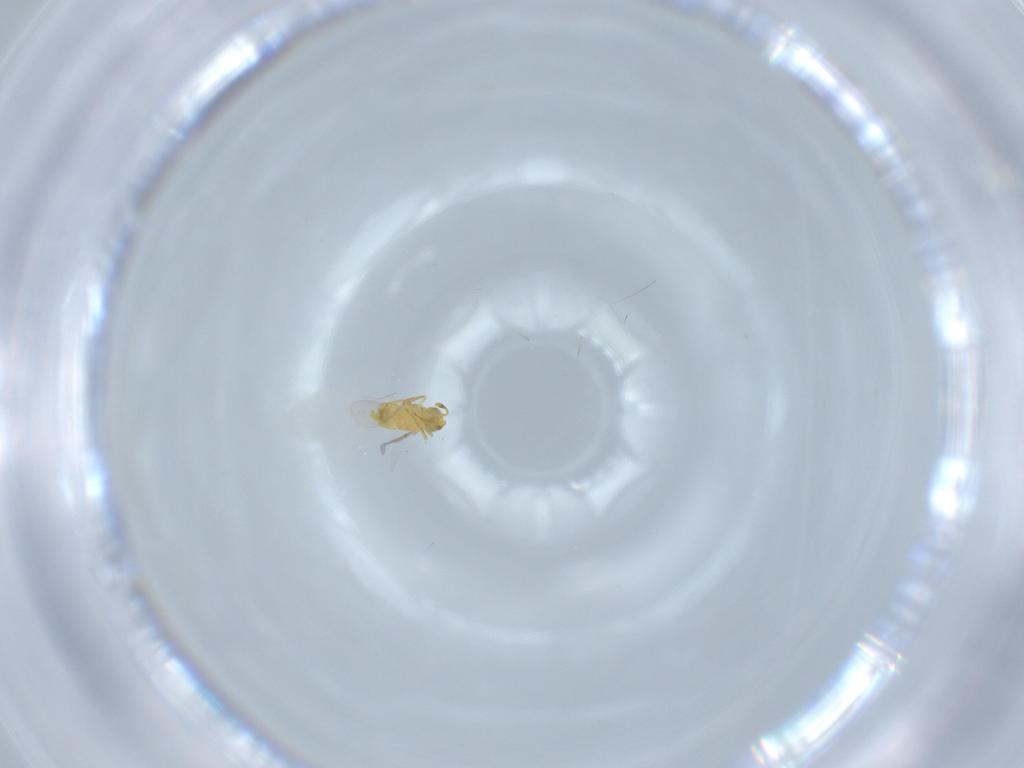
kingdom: Animalia
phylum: Arthropoda
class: Insecta
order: Hymenoptera
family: Encyrtidae
